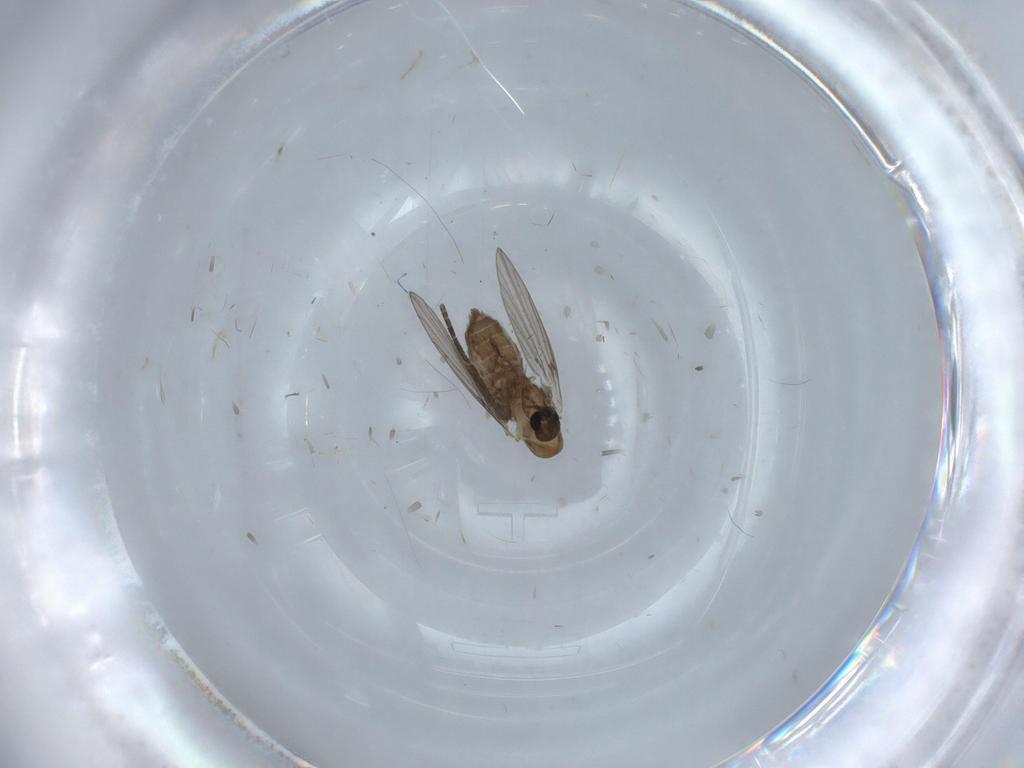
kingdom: Animalia
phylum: Arthropoda
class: Insecta
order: Diptera
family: Psychodidae
